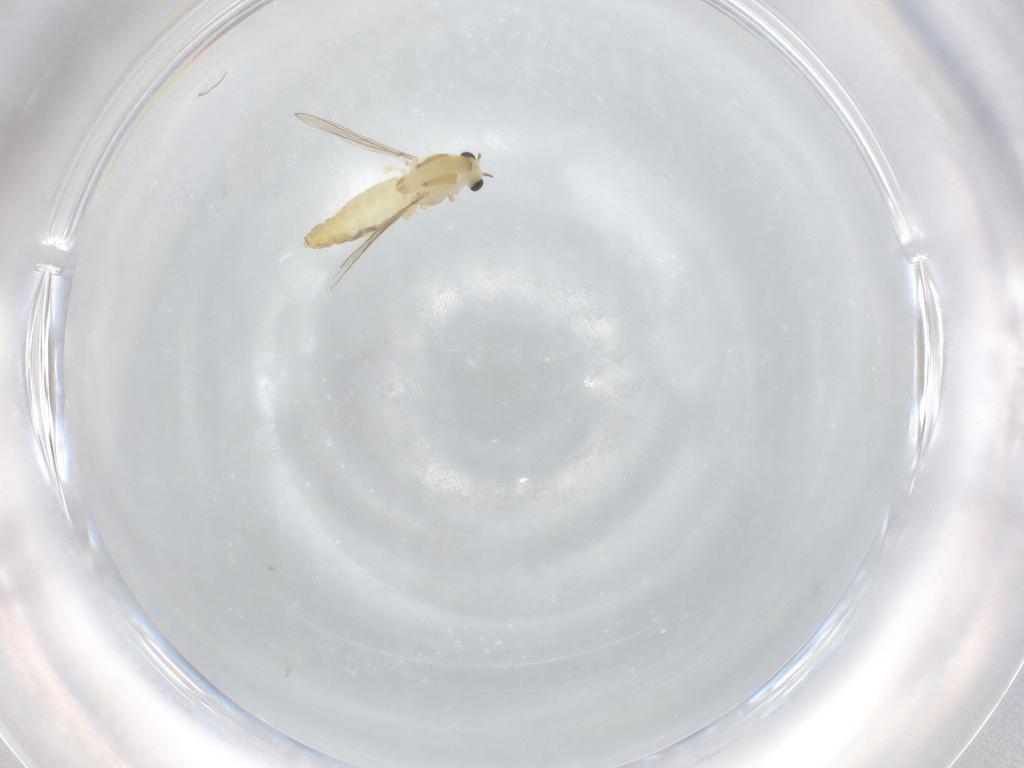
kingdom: Animalia
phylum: Arthropoda
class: Insecta
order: Diptera
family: Chironomidae
